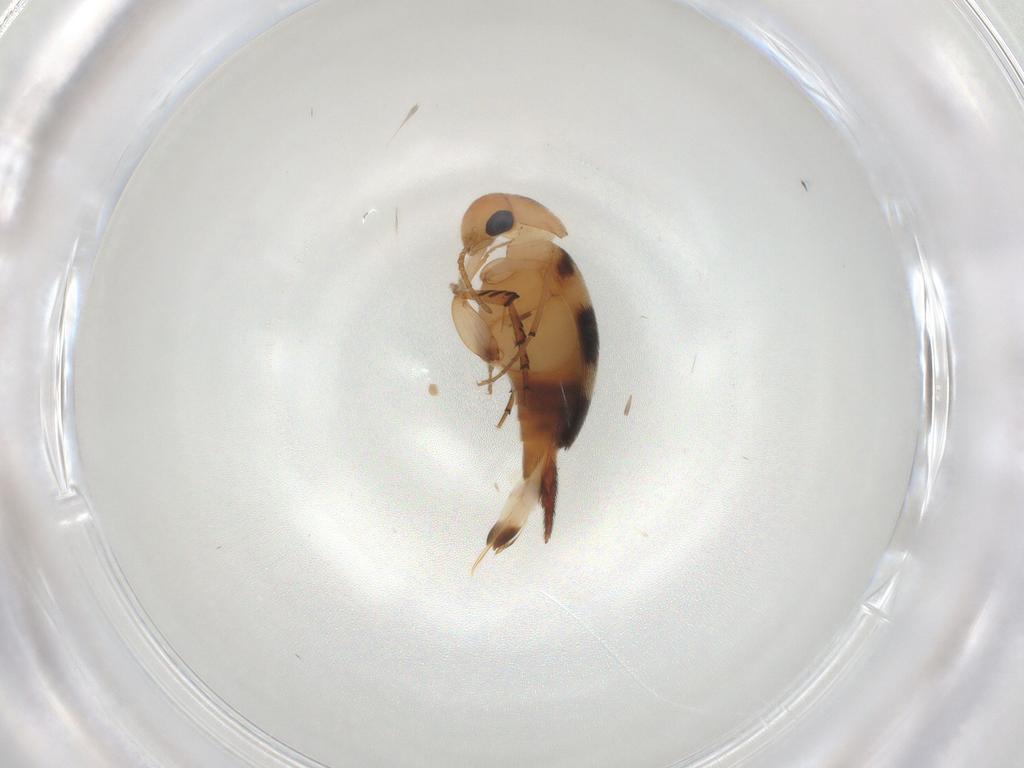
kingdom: Animalia
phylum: Arthropoda
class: Insecta
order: Coleoptera
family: Mordellidae
